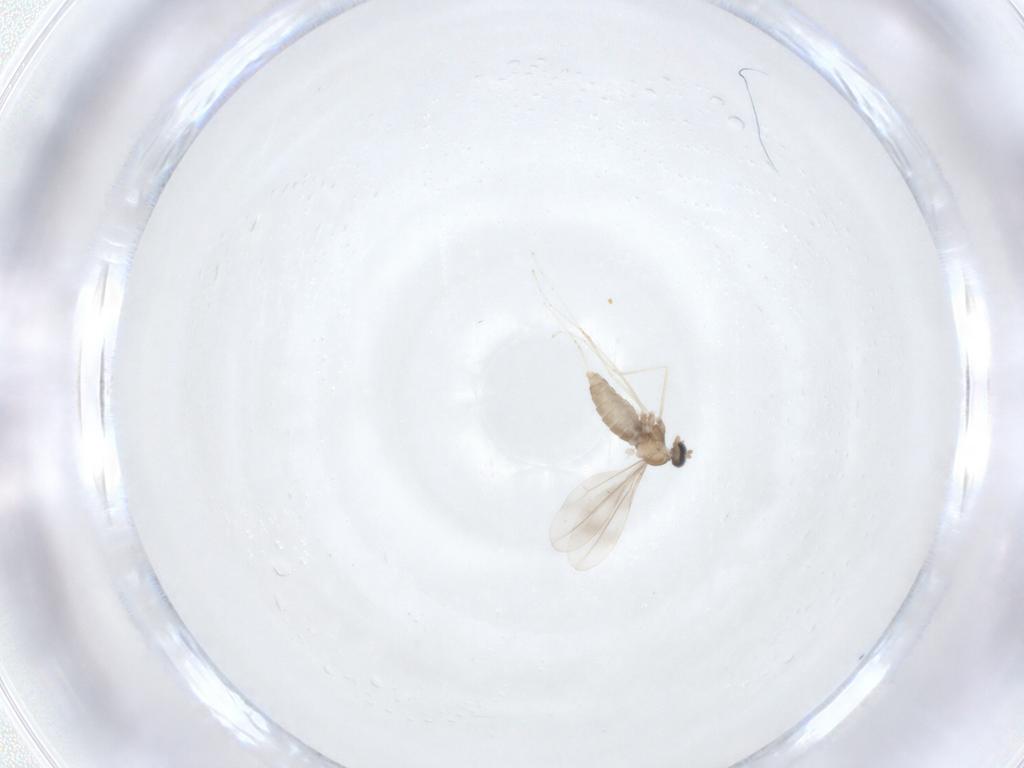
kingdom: Animalia
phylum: Arthropoda
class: Insecta
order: Diptera
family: Cecidomyiidae
